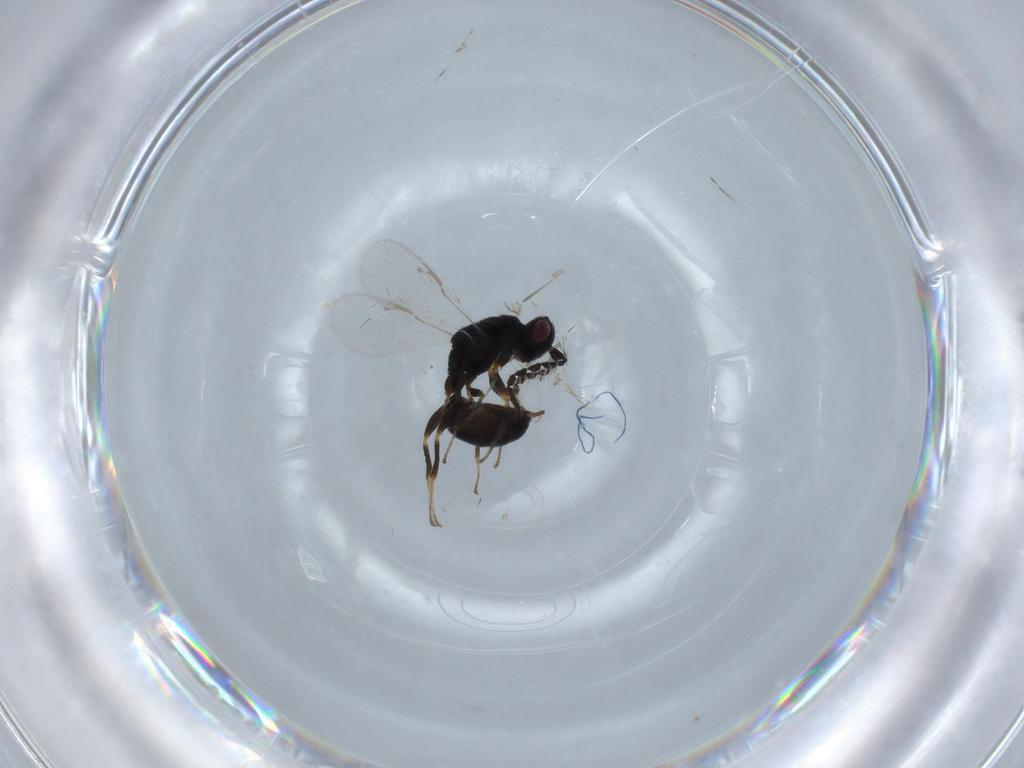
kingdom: Animalia
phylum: Arthropoda
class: Insecta
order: Hymenoptera
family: Eurytomidae
